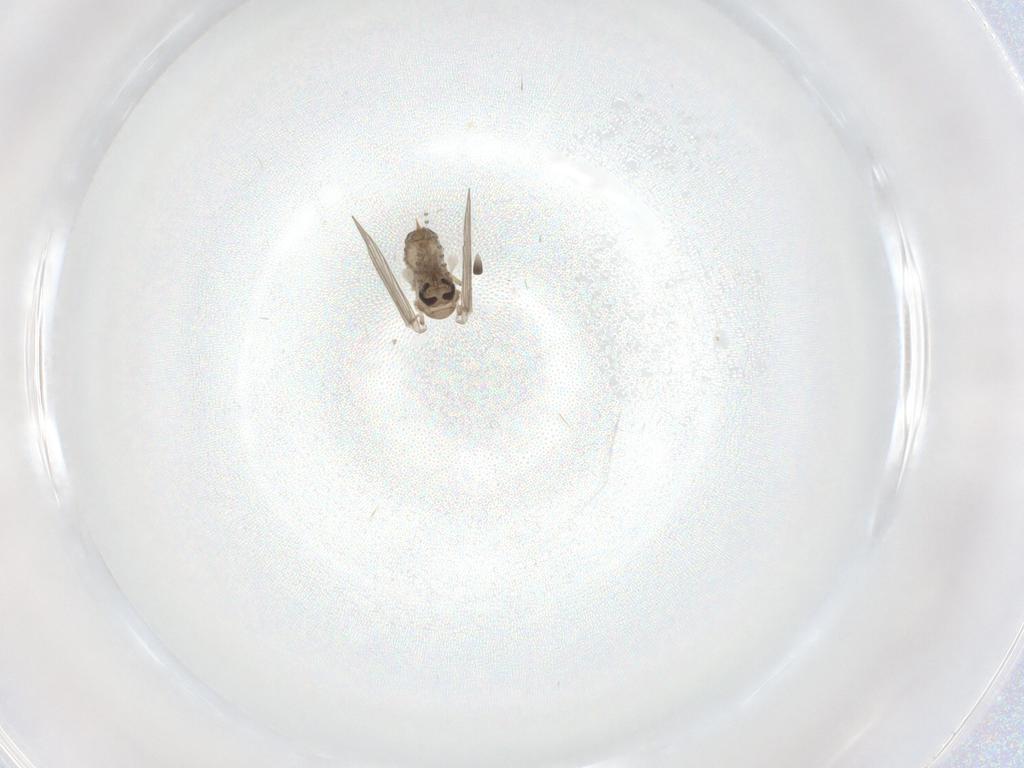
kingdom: Animalia
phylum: Arthropoda
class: Insecta
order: Diptera
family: Psychodidae
